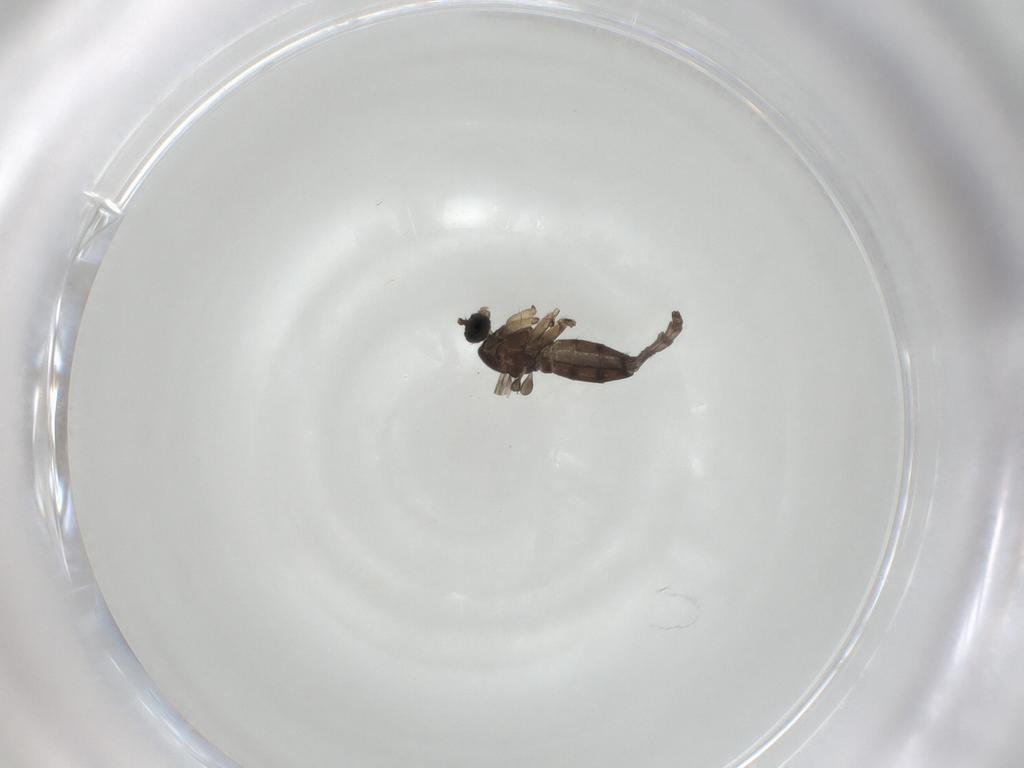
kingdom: Animalia
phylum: Arthropoda
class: Insecta
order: Diptera
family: Sciaridae
